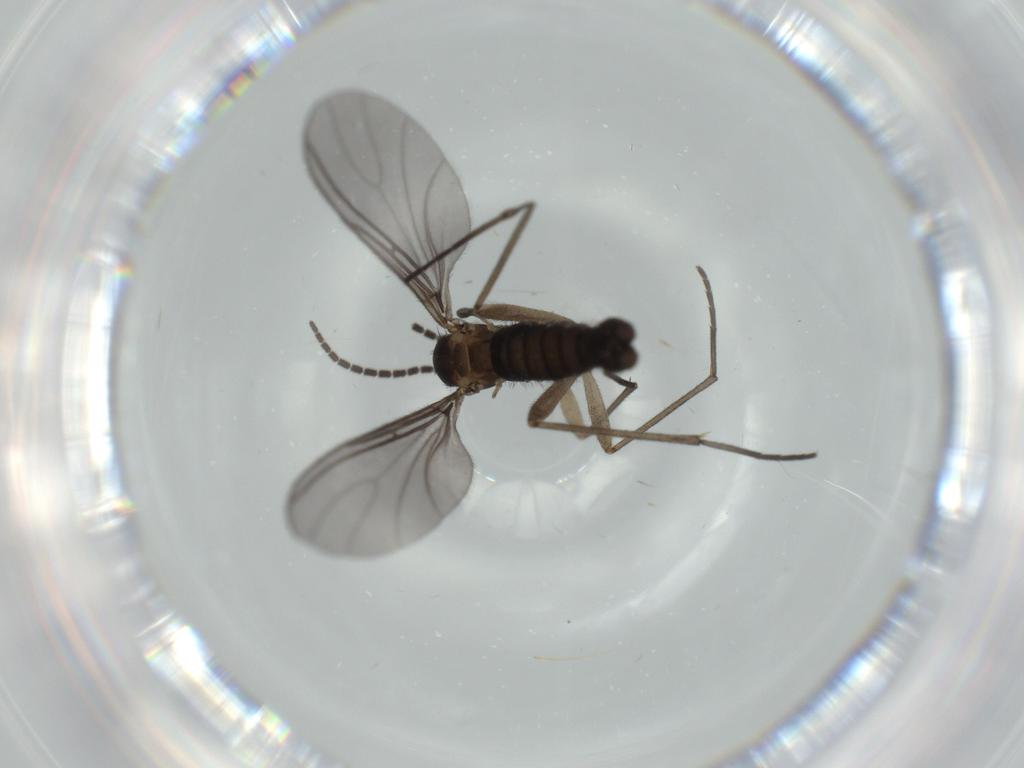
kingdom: Animalia
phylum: Arthropoda
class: Insecta
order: Diptera
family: Sciaridae
